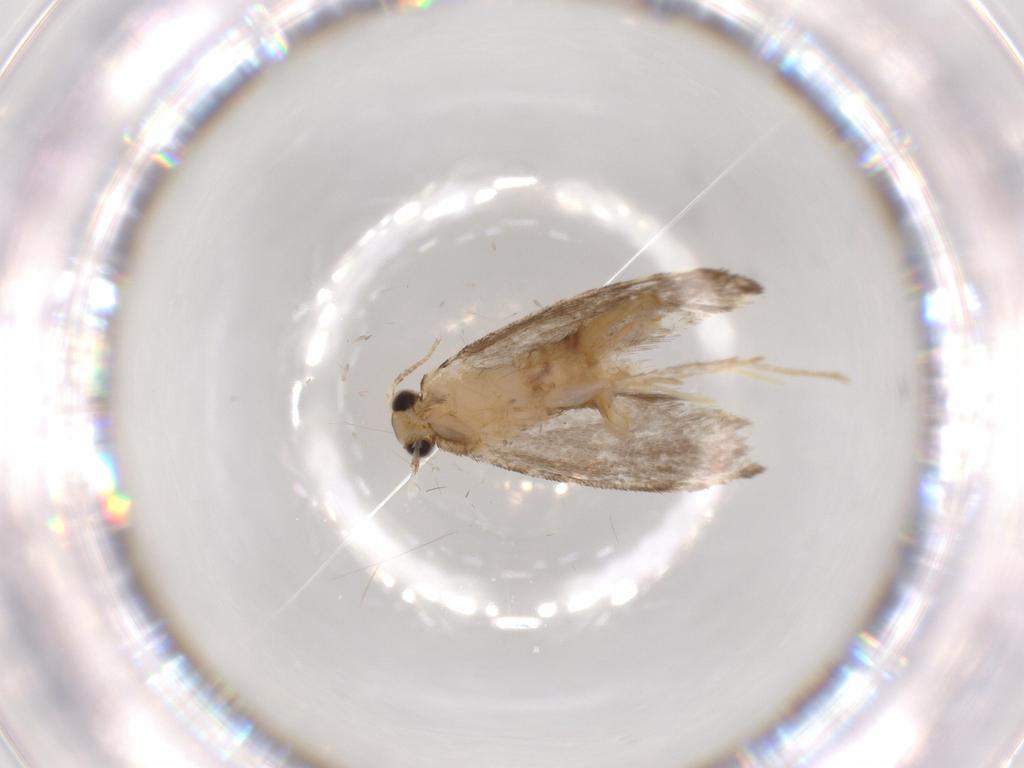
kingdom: Animalia
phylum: Arthropoda
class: Insecta
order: Lepidoptera
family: Tineidae
